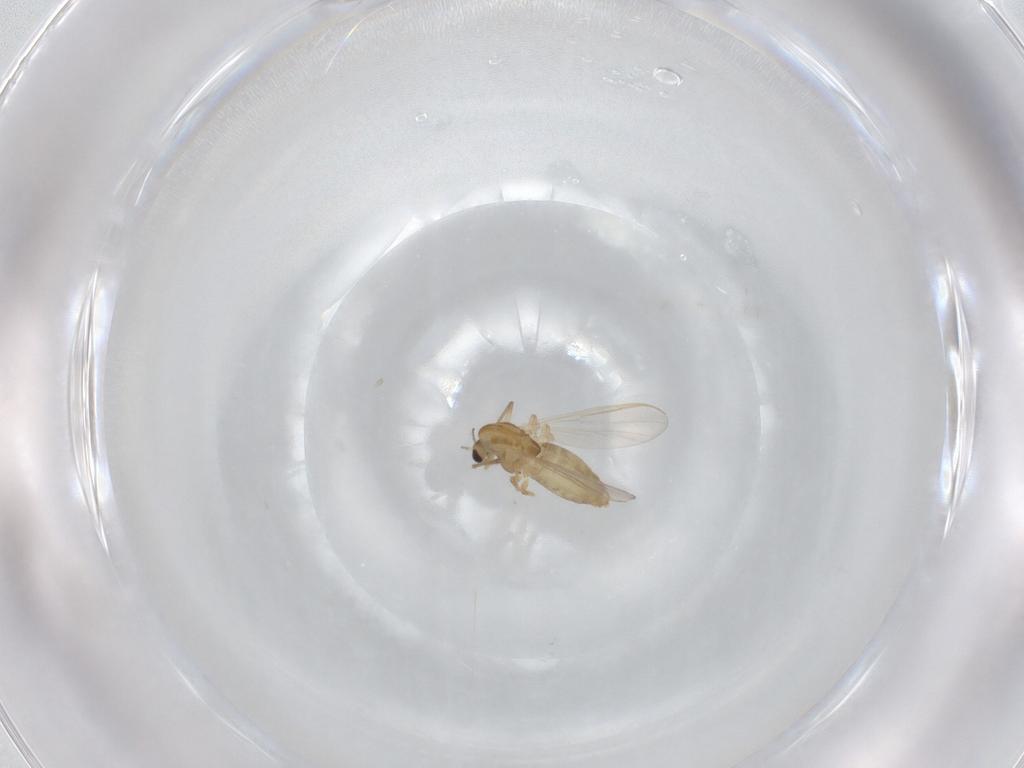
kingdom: Animalia
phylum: Arthropoda
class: Insecta
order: Diptera
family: Chironomidae
